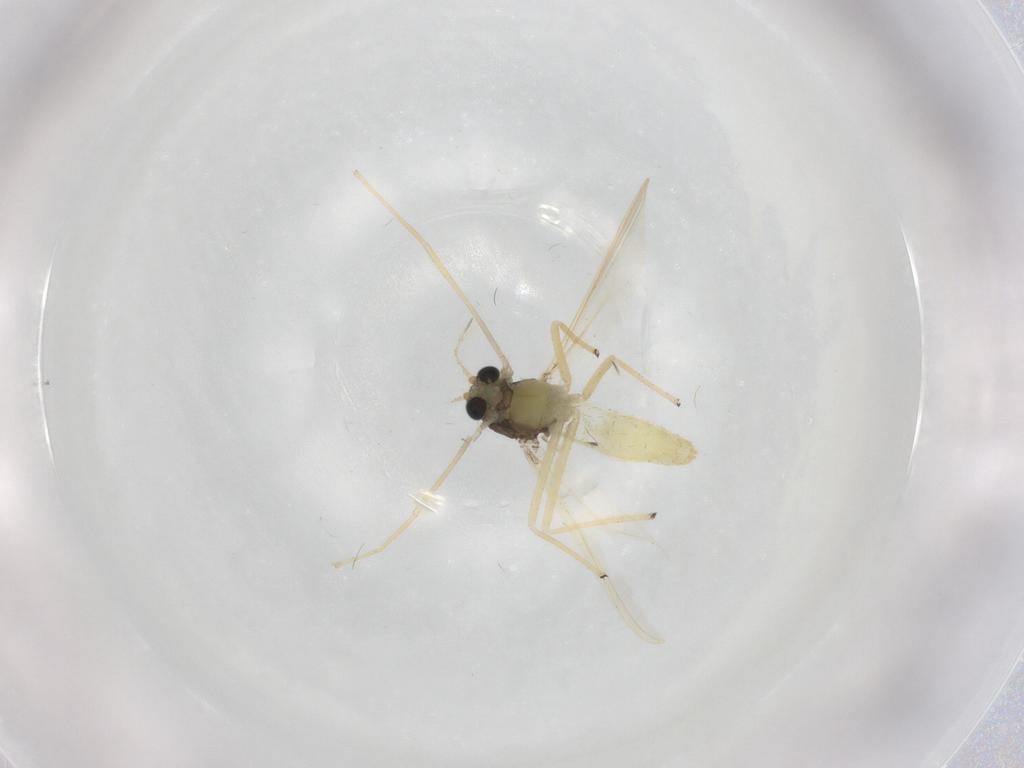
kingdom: Animalia
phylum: Arthropoda
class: Insecta
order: Diptera
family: Chironomidae
